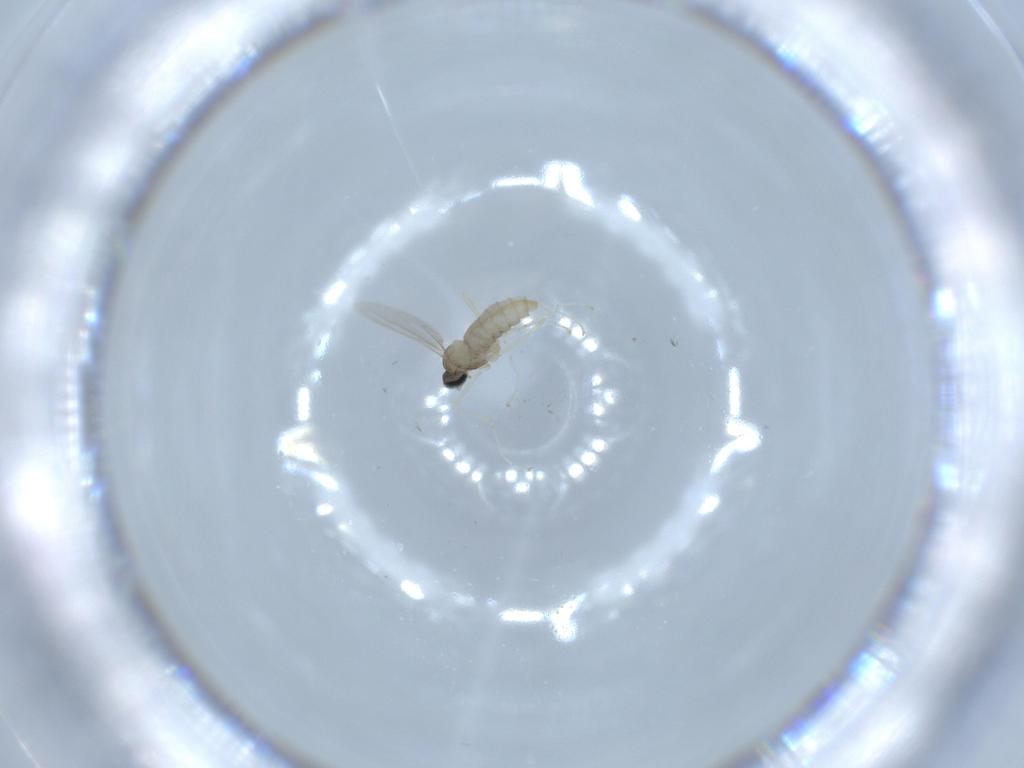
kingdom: Animalia
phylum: Arthropoda
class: Insecta
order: Diptera
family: Cecidomyiidae
